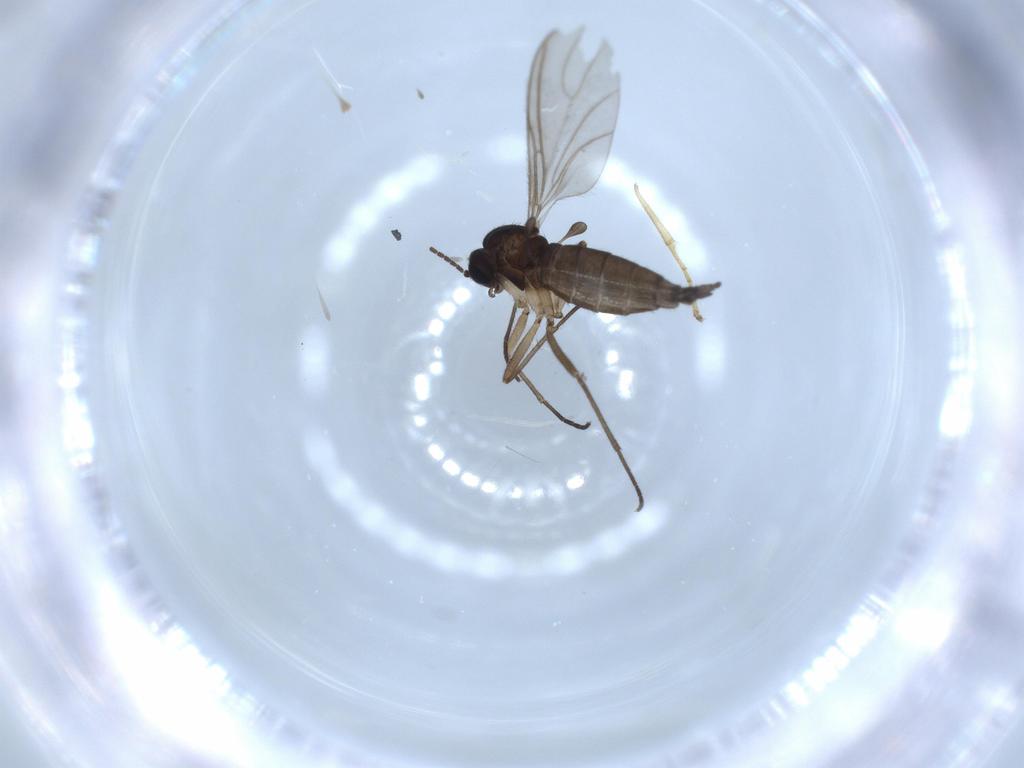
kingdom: Animalia
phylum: Arthropoda
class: Insecta
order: Diptera
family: Sciaridae
